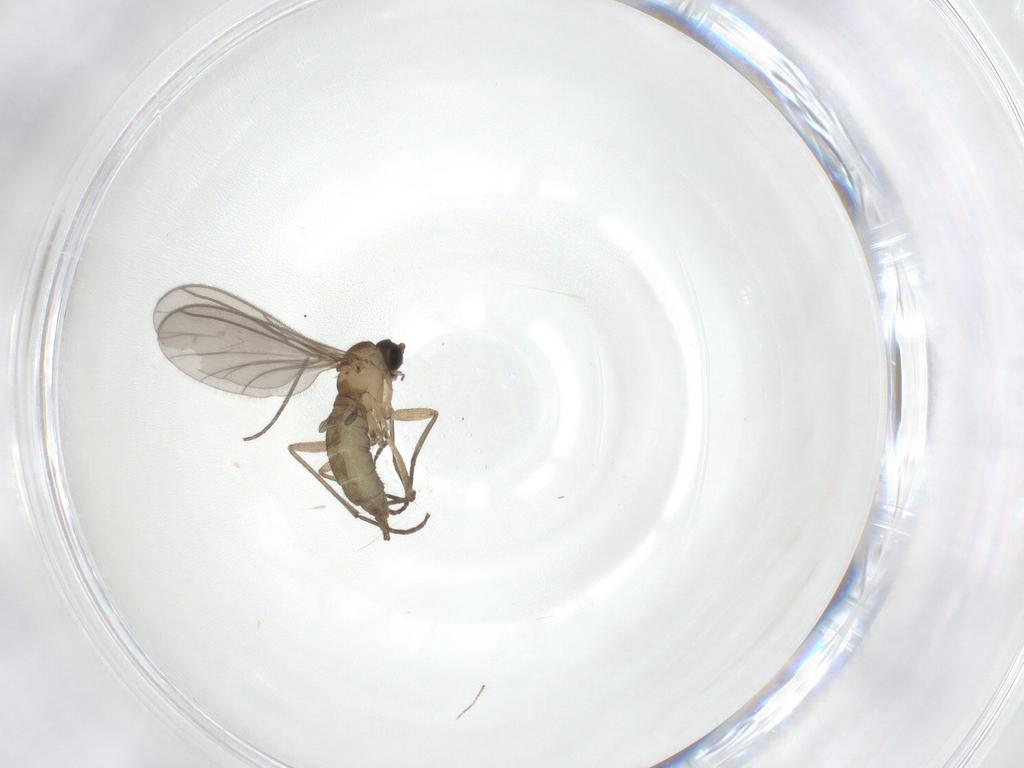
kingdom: Animalia
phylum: Arthropoda
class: Insecta
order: Diptera
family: Sciaridae
